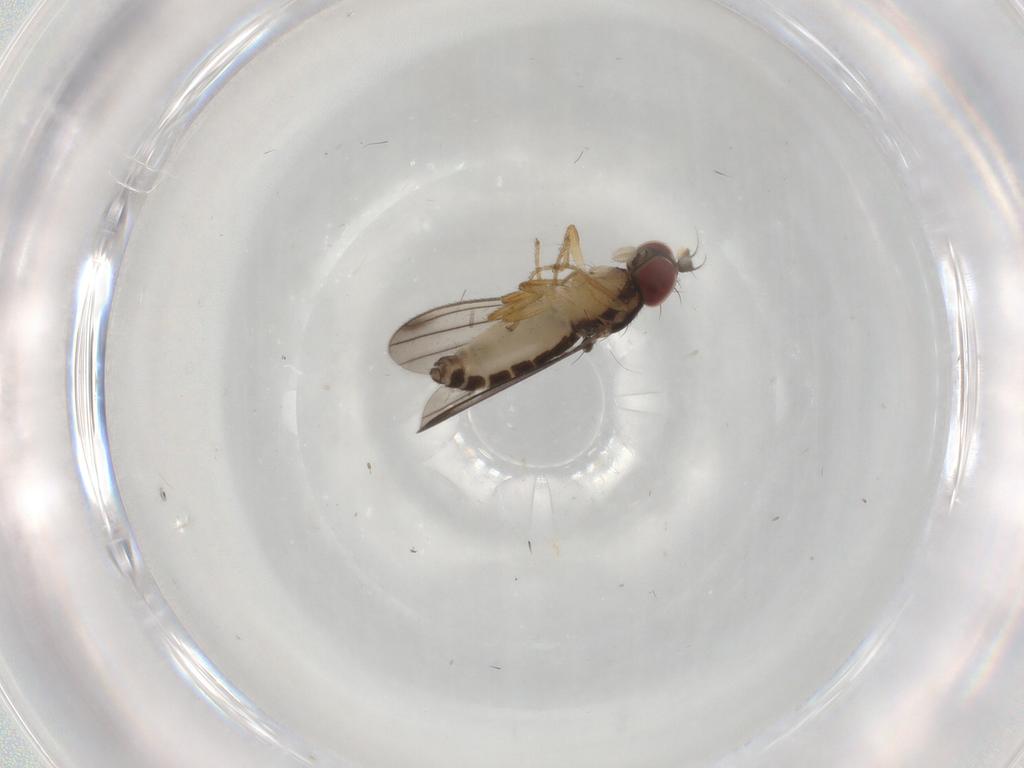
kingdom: Animalia
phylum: Arthropoda
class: Insecta
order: Diptera
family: Anthomyzidae
